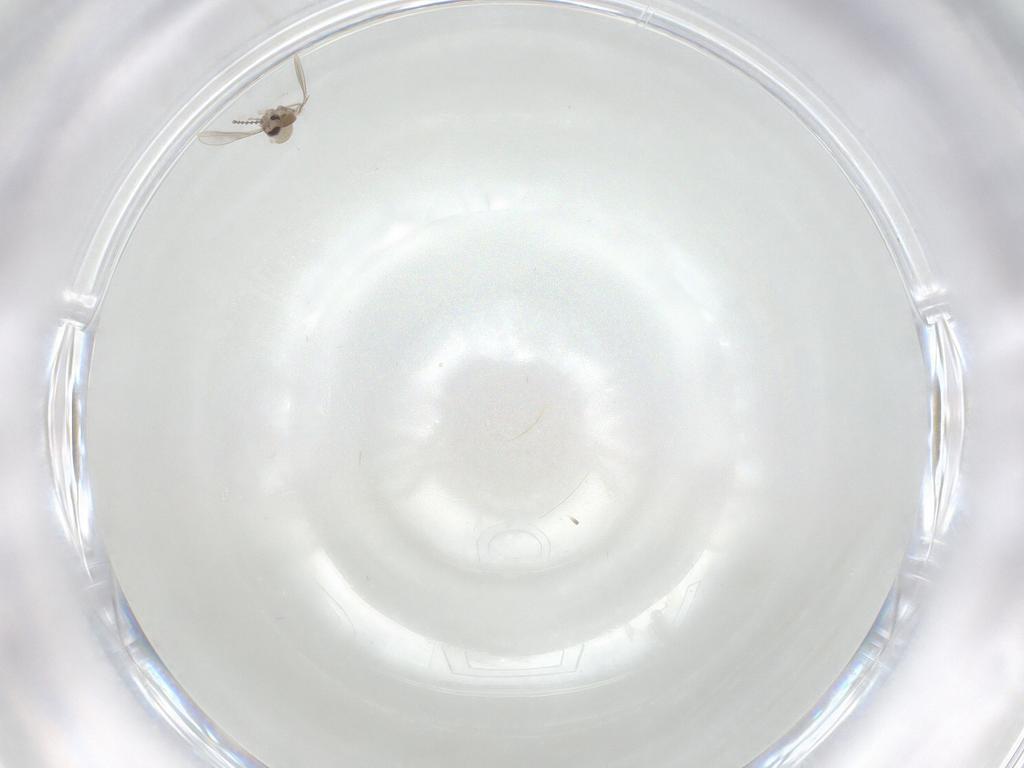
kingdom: Animalia
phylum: Arthropoda
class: Insecta
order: Diptera
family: Cecidomyiidae
